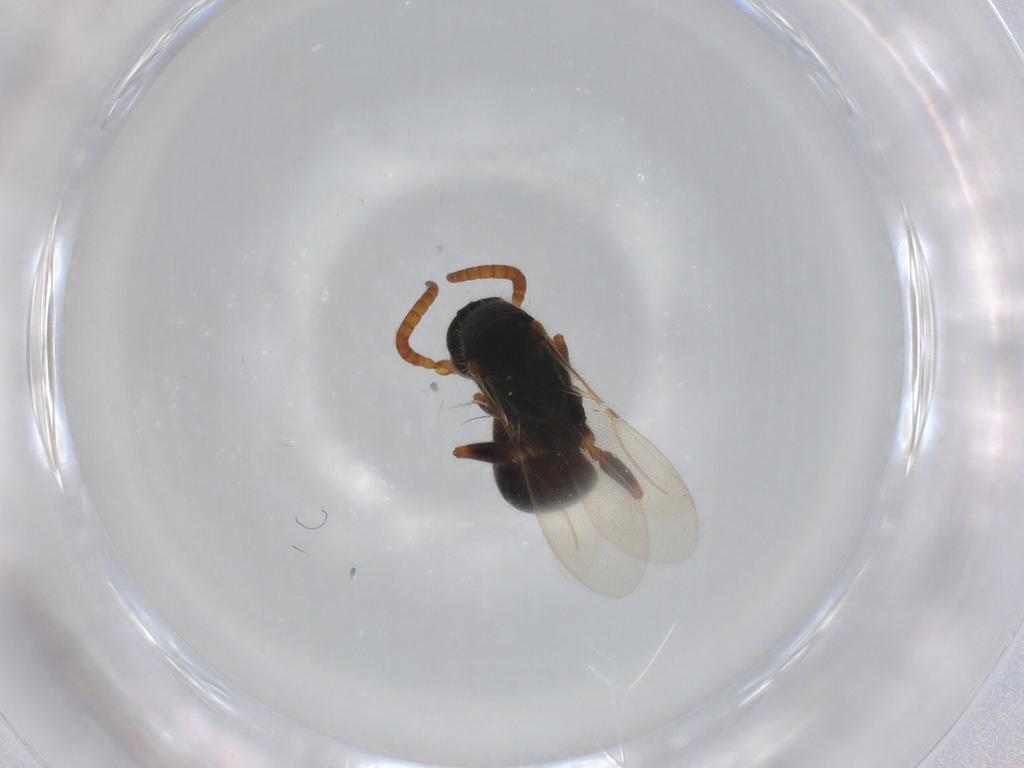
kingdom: Animalia
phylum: Arthropoda
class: Insecta
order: Hymenoptera
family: Bethylidae
